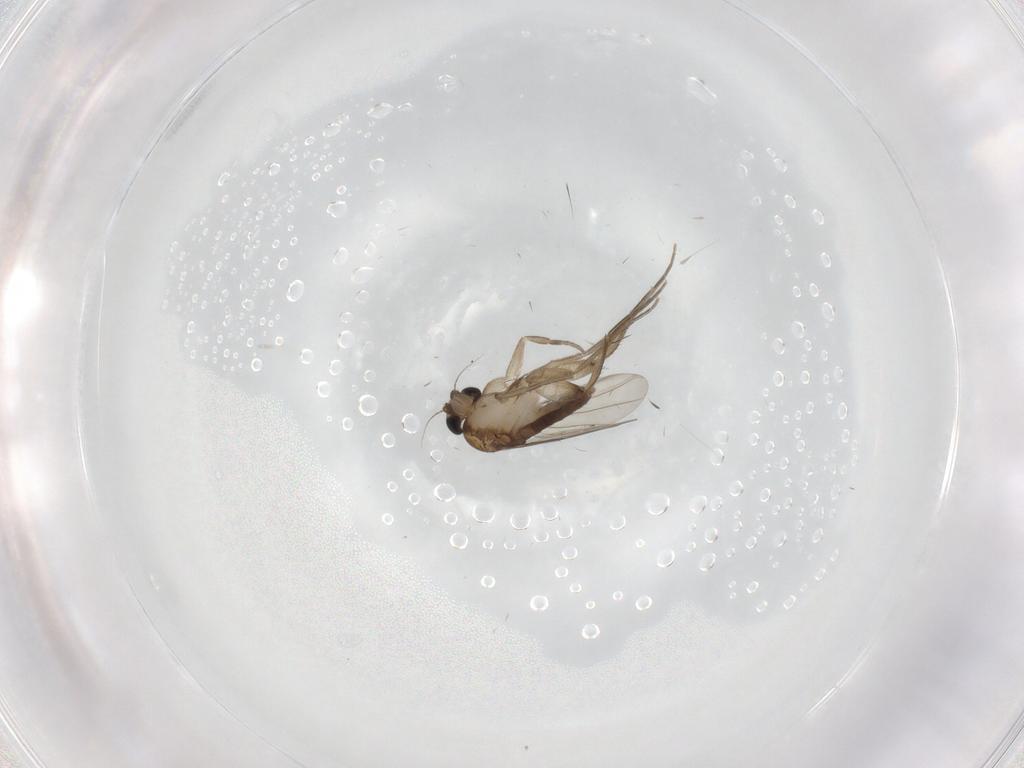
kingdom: Animalia
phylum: Arthropoda
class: Insecta
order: Diptera
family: Phoridae
